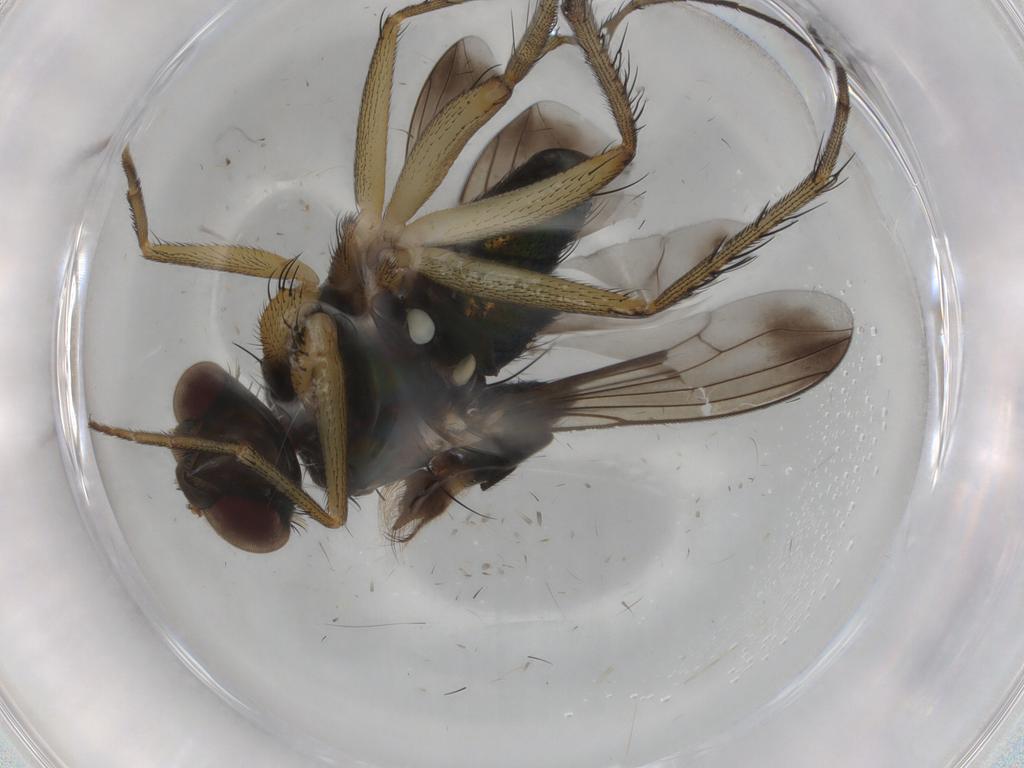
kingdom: Animalia
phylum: Arthropoda
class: Insecta
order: Diptera
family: Dolichopodidae
